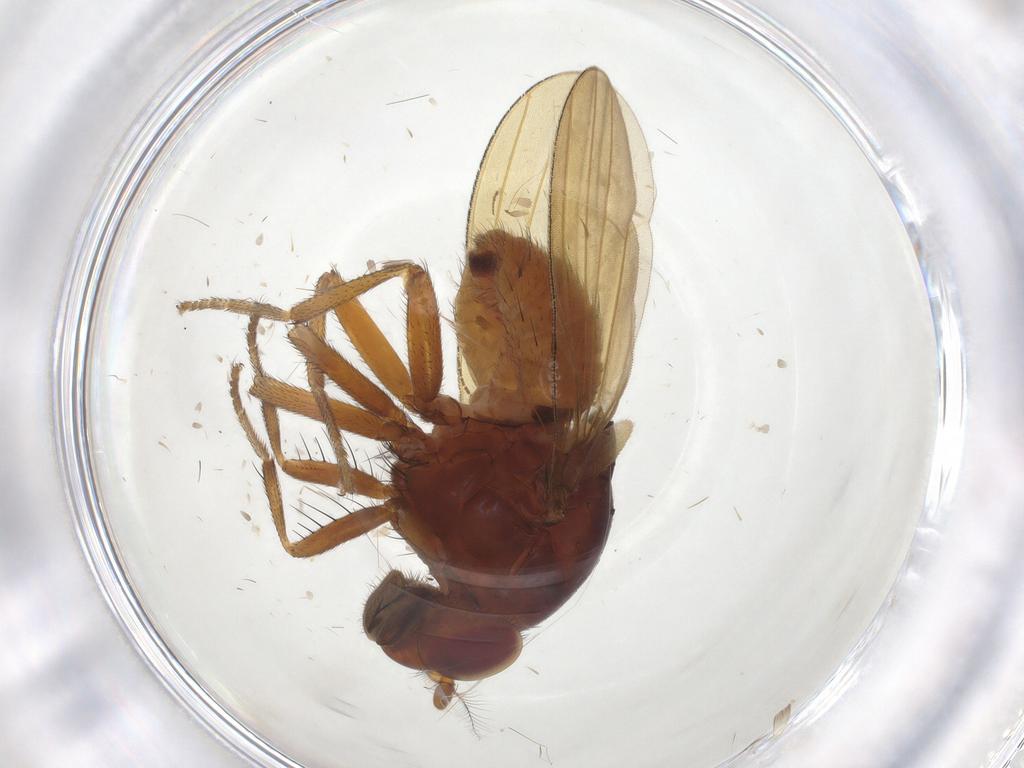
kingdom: Animalia
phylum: Arthropoda
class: Insecta
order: Diptera
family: Lauxaniidae
